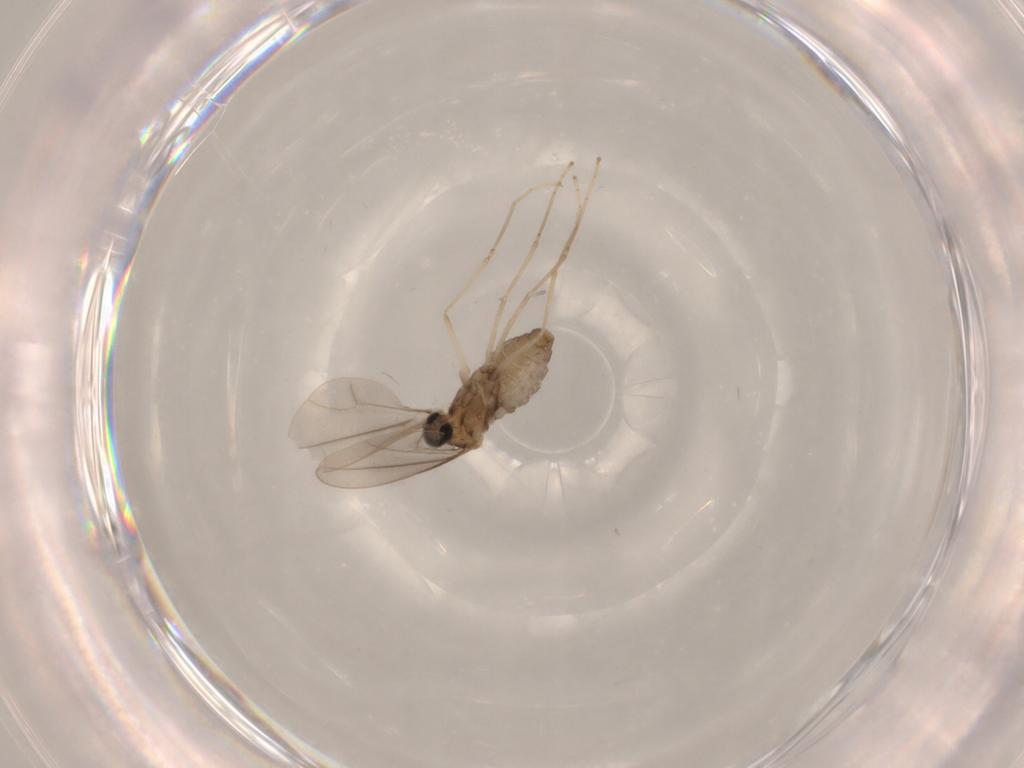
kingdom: Animalia
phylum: Arthropoda
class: Insecta
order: Diptera
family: Cecidomyiidae
